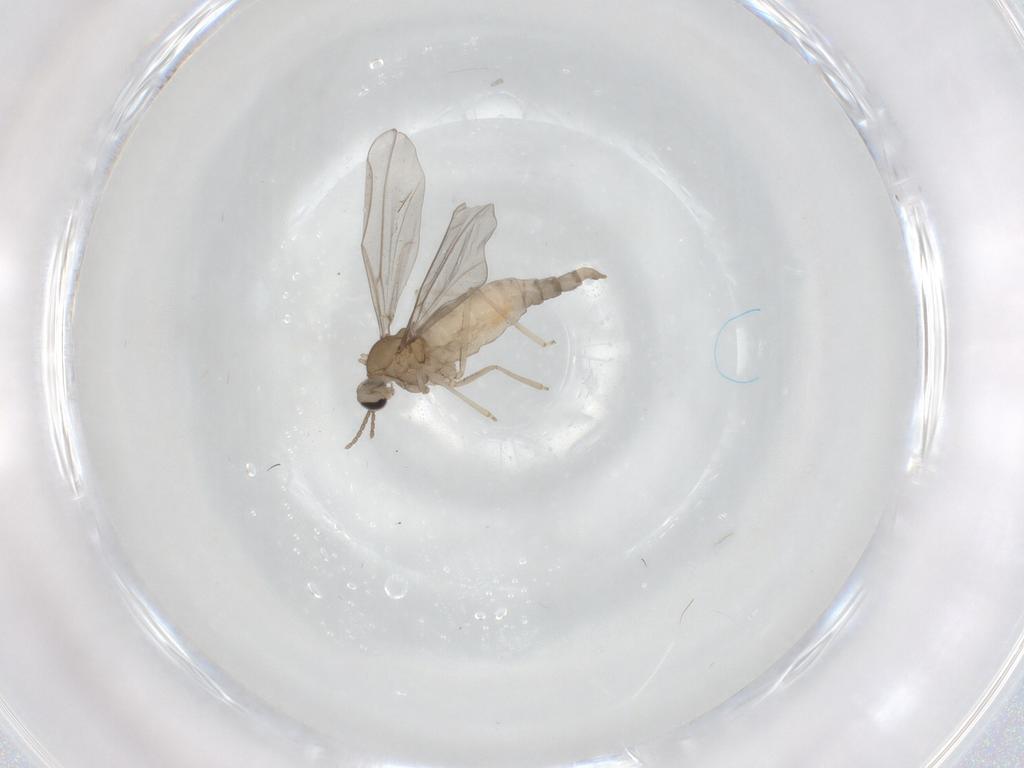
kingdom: Animalia
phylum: Arthropoda
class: Insecta
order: Diptera
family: Cecidomyiidae
